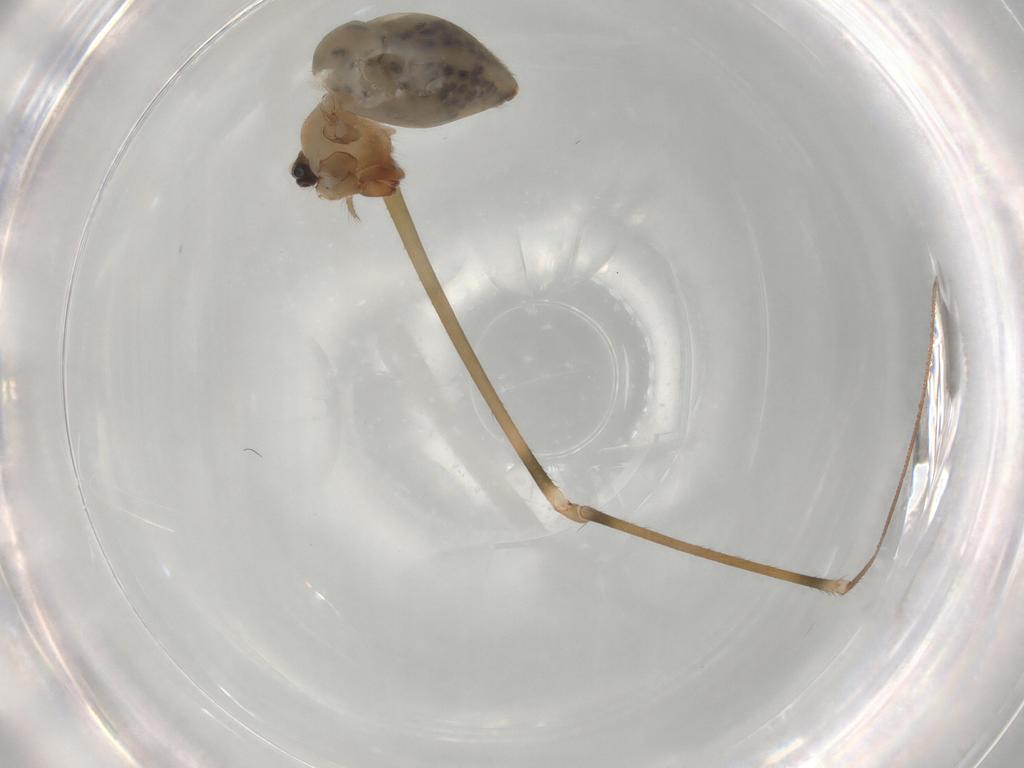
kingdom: Animalia
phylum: Arthropoda
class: Arachnida
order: Araneae
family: Pholcidae
